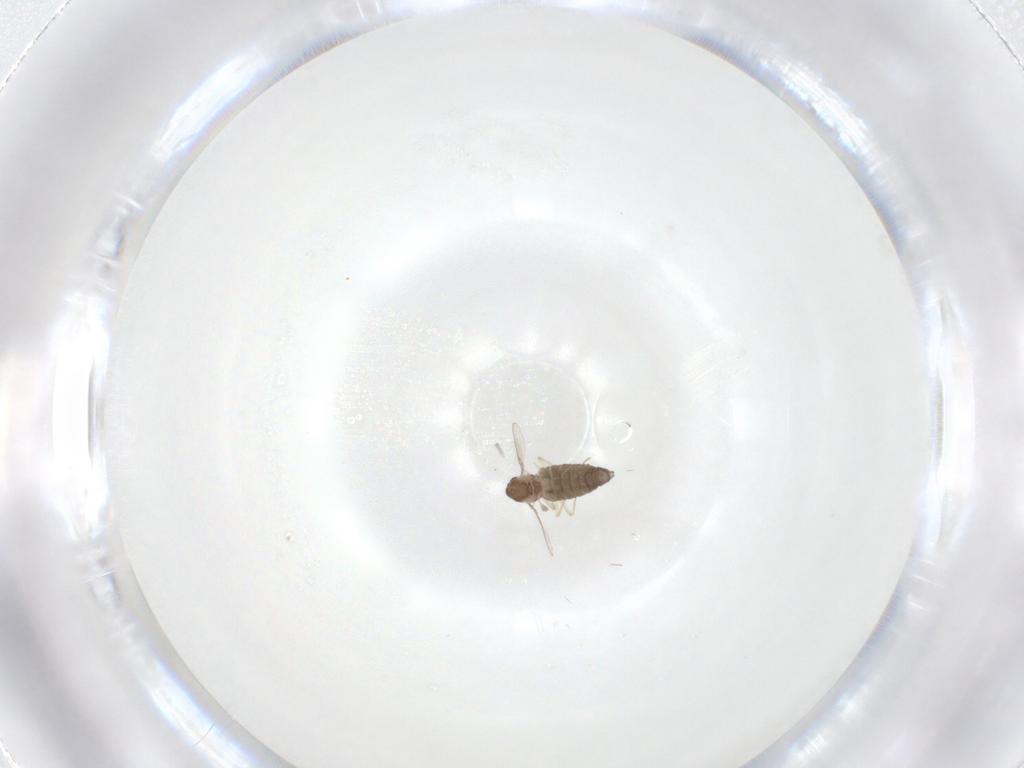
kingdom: Animalia
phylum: Arthropoda
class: Insecta
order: Diptera
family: Chironomidae
